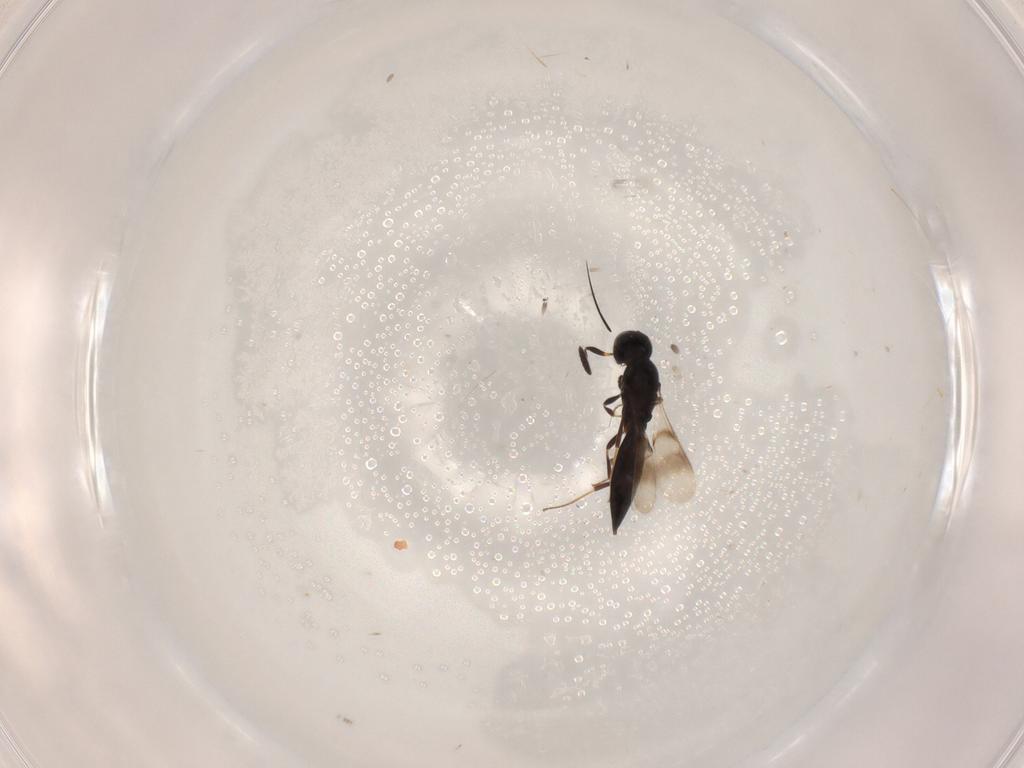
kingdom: Animalia
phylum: Arthropoda
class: Insecta
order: Hymenoptera
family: Scelionidae
